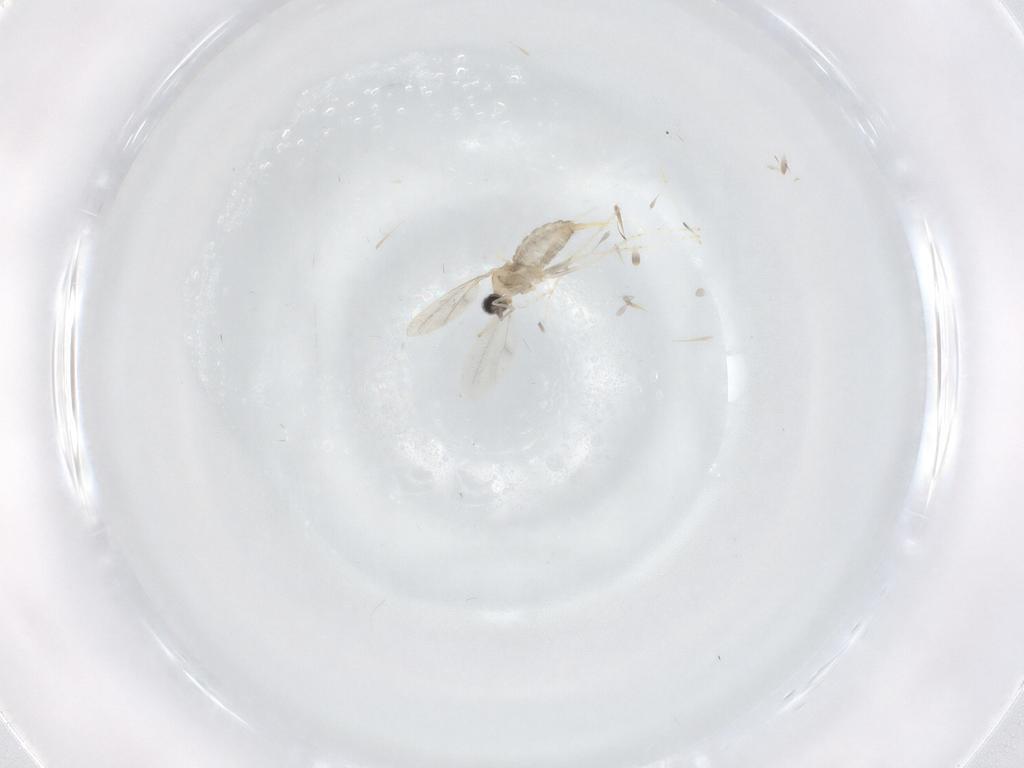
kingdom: Animalia
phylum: Arthropoda
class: Insecta
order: Diptera
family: Cecidomyiidae
